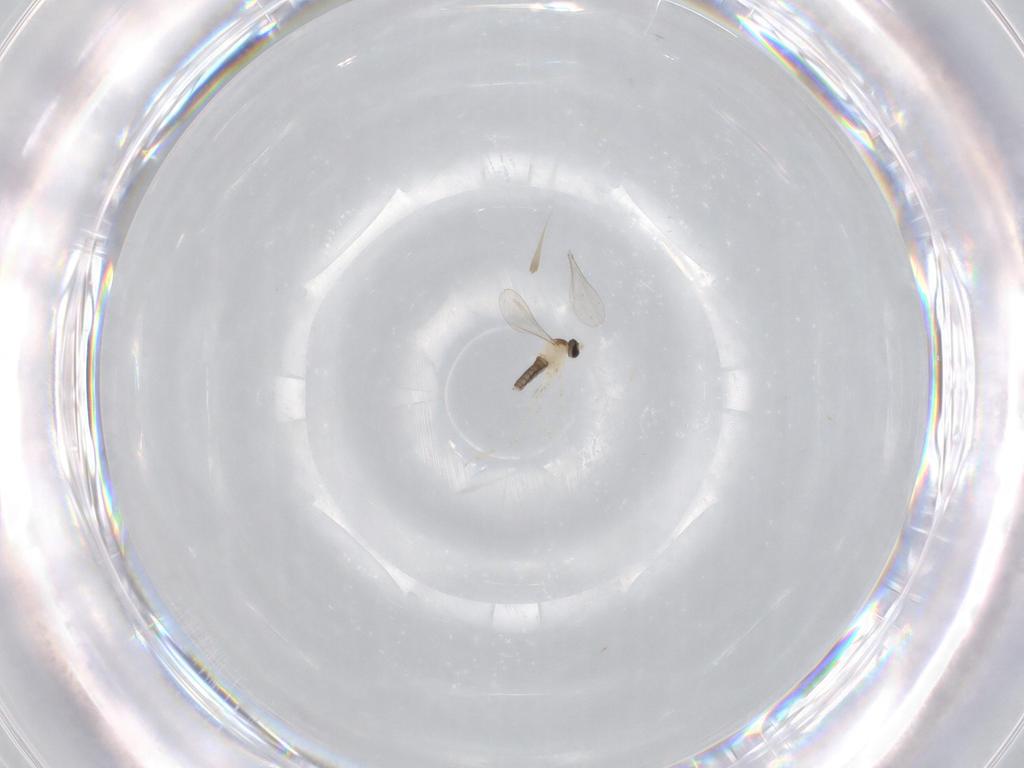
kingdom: Animalia
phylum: Arthropoda
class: Insecta
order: Diptera
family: Cecidomyiidae
